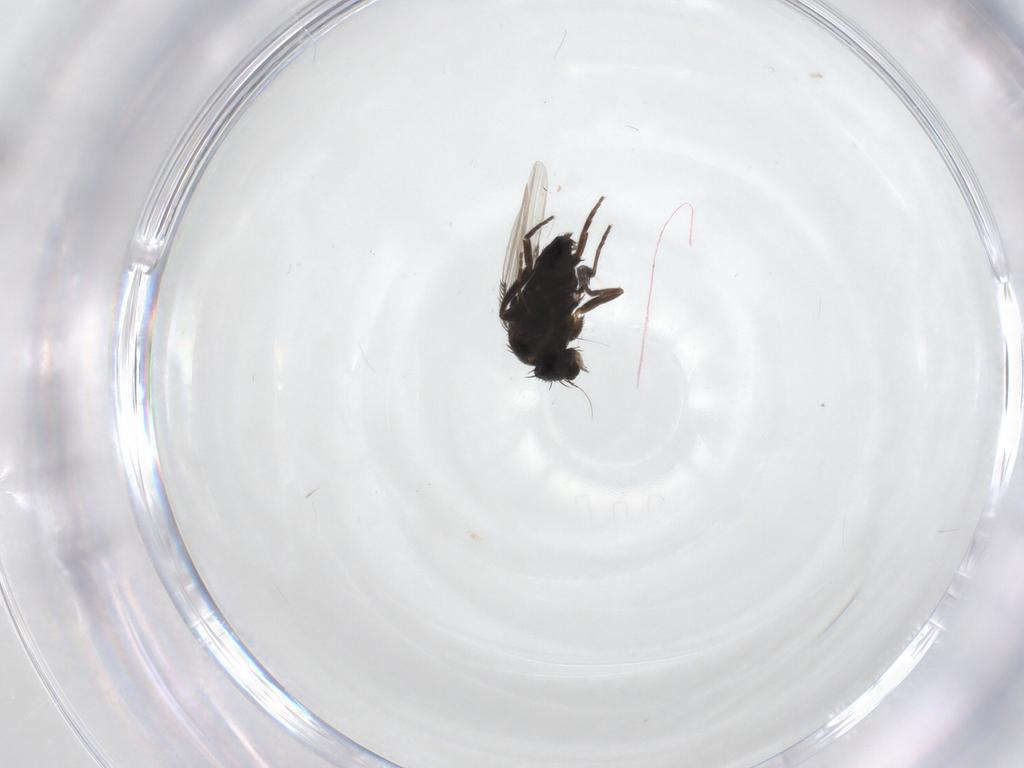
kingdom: Animalia
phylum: Arthropoda
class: Insecta
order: Diptera
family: Phoridae
